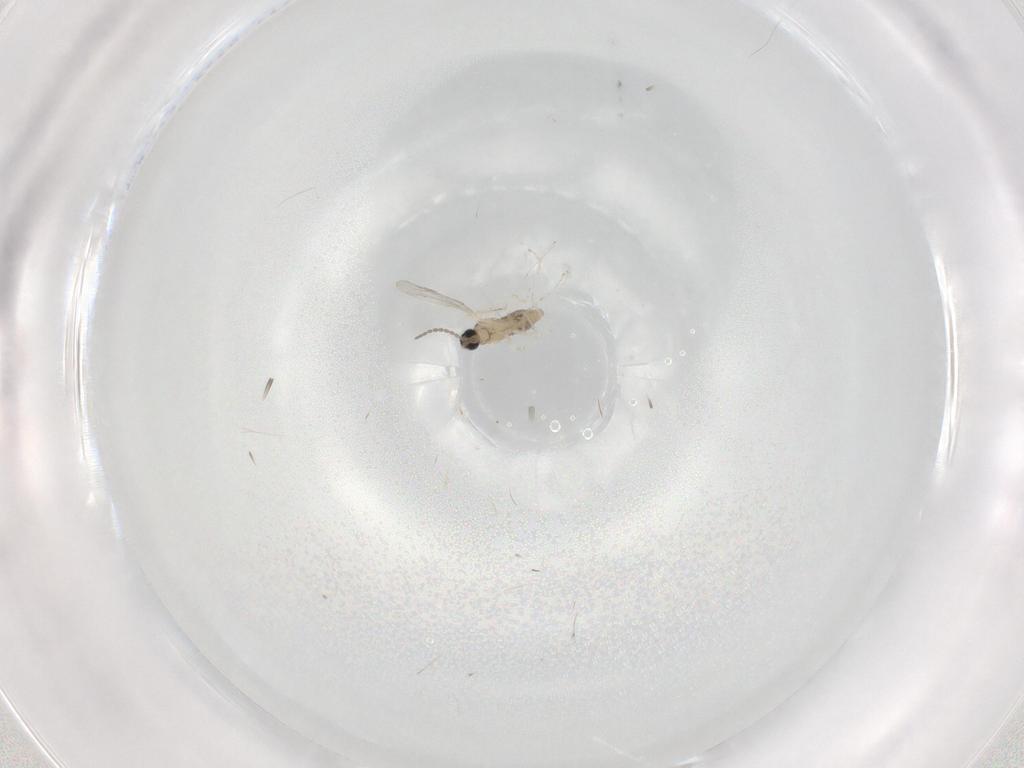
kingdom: Animalia
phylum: Arthropoda
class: Insecta
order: Diptera
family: Cecidomyiidae
